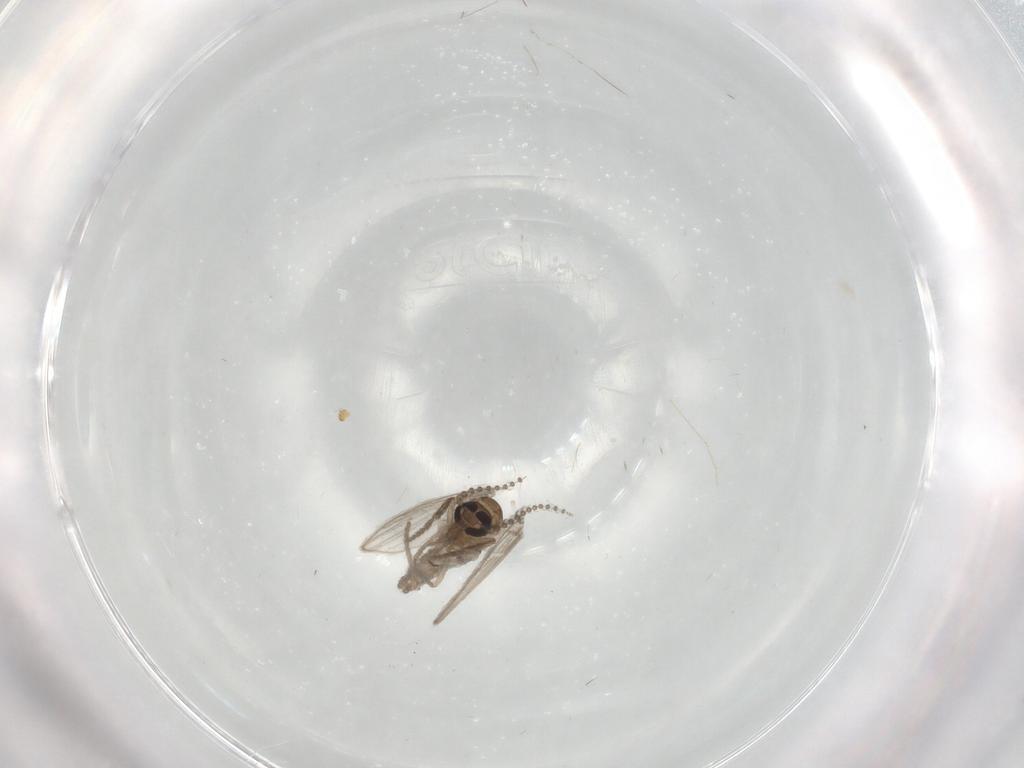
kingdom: Animalia
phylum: Arthropoda
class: Insecta
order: Diptera
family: Psychodidae
